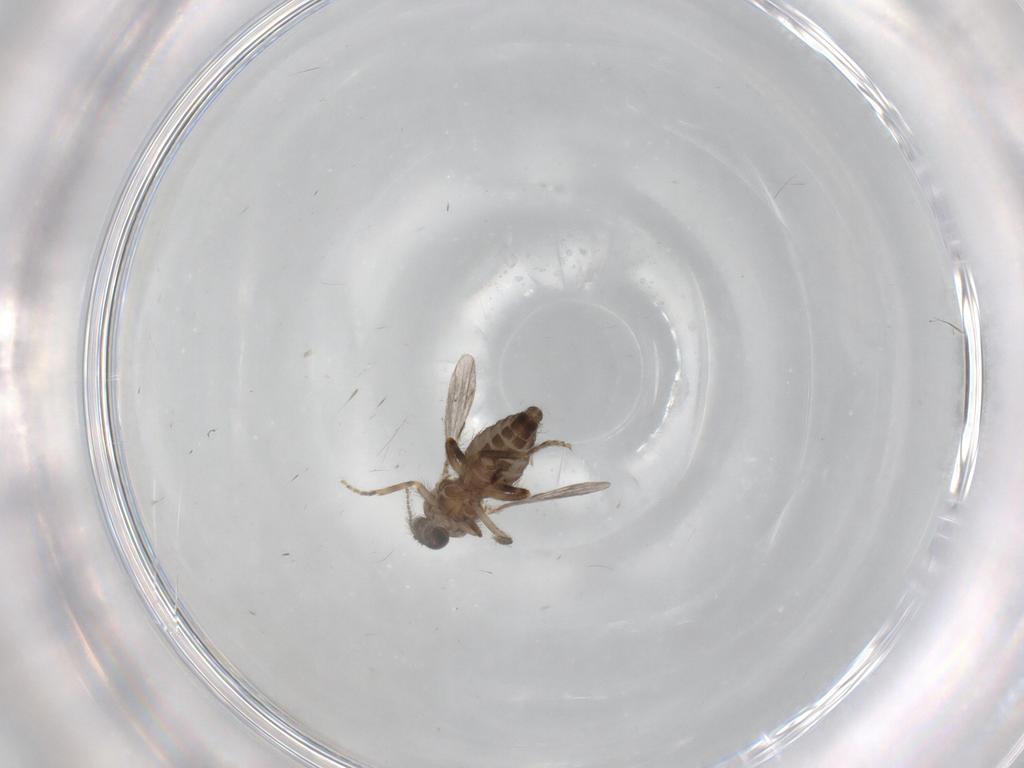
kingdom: Animalia
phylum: Arthropoda
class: Insecta
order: Diptera
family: Ceratopogonidae
